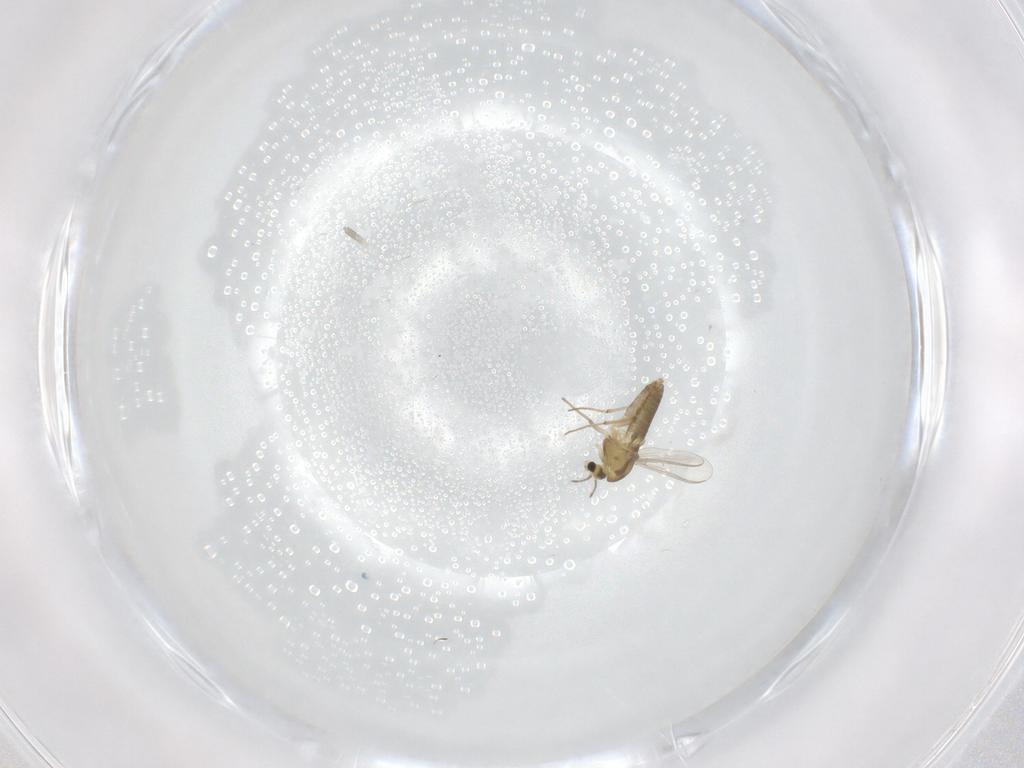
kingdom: Animalia
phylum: Arthropoda
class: Insecta
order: Diptera
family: Chironomidae
